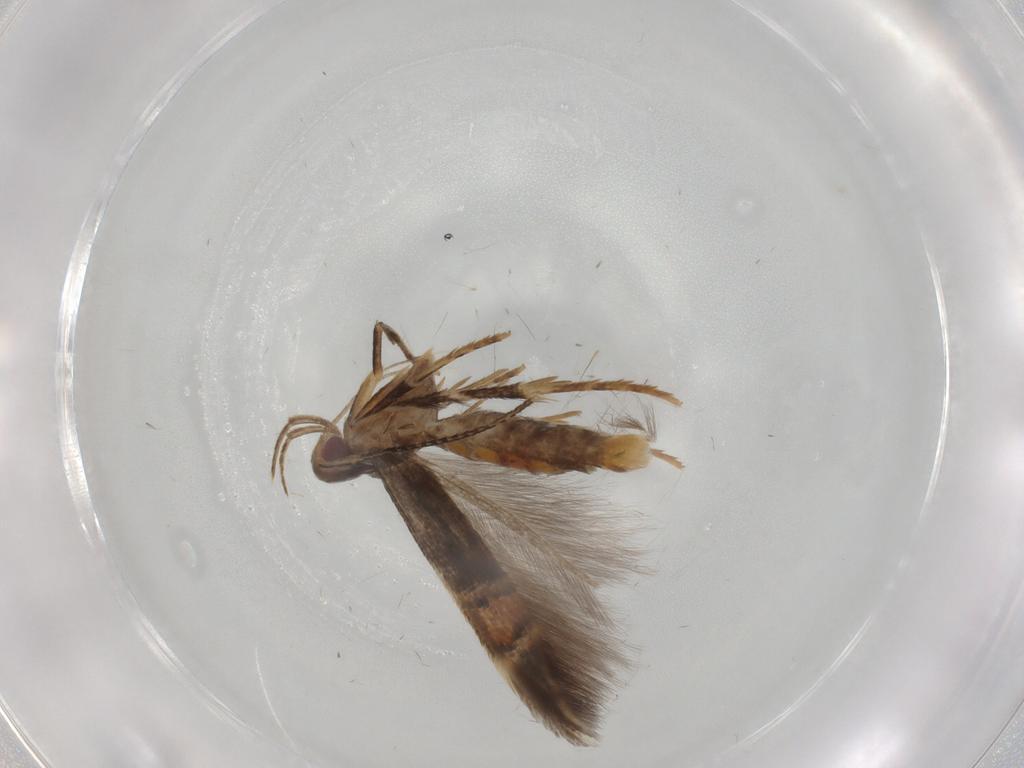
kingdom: Animalia
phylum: Arthropoda
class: Insecta
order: Lepidoptera
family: Cosmopterigidae
